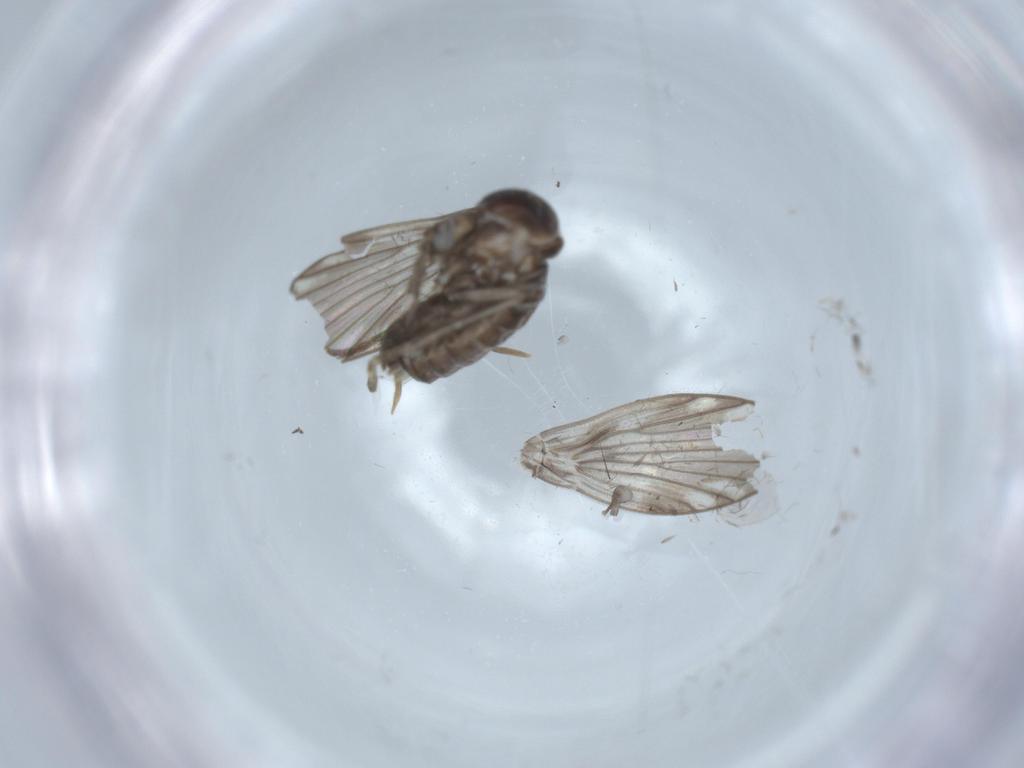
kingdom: Animalia
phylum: Arthropoda
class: Insecta
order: Diptera
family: Psychodidae
